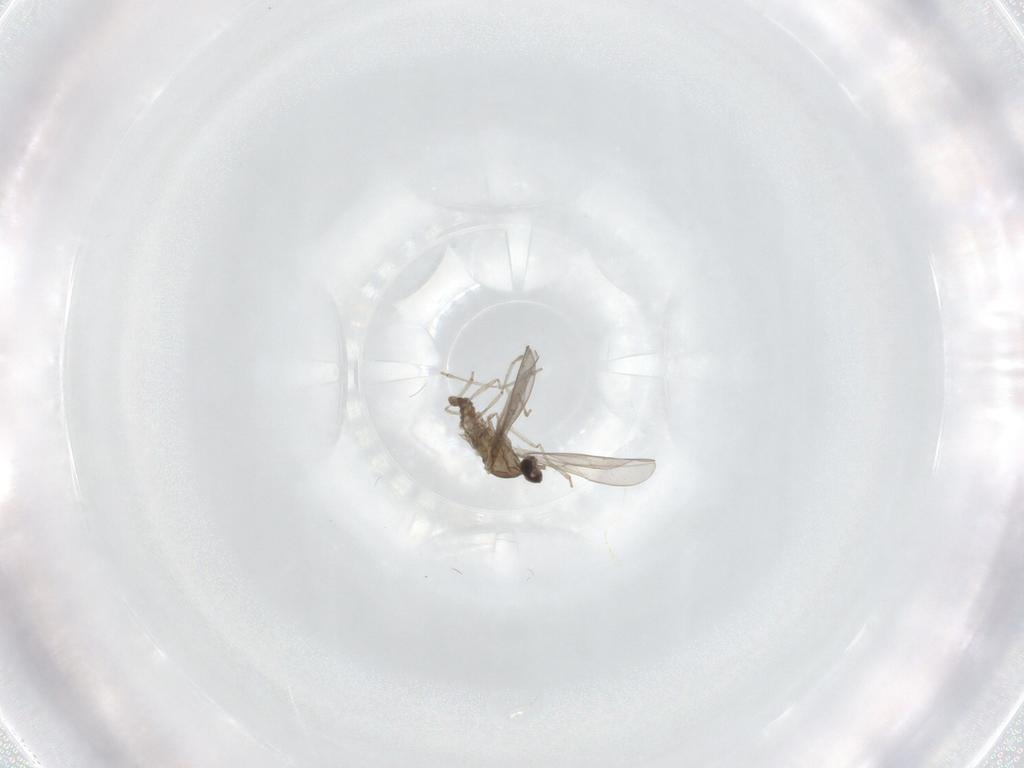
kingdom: Animalia
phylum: Arthropoda
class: Insecta
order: Diptera
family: Cecidomyiidae
